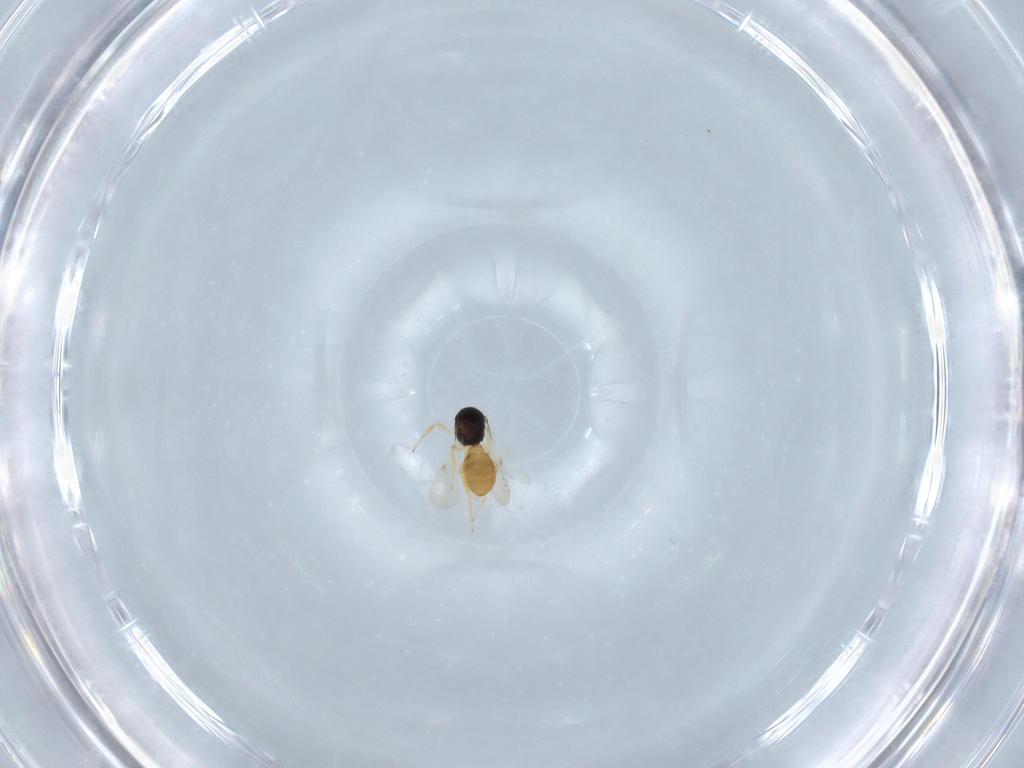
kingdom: Animalia
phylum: Arthropoda
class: Insecta
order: Hymenoptera
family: Scelionidae
